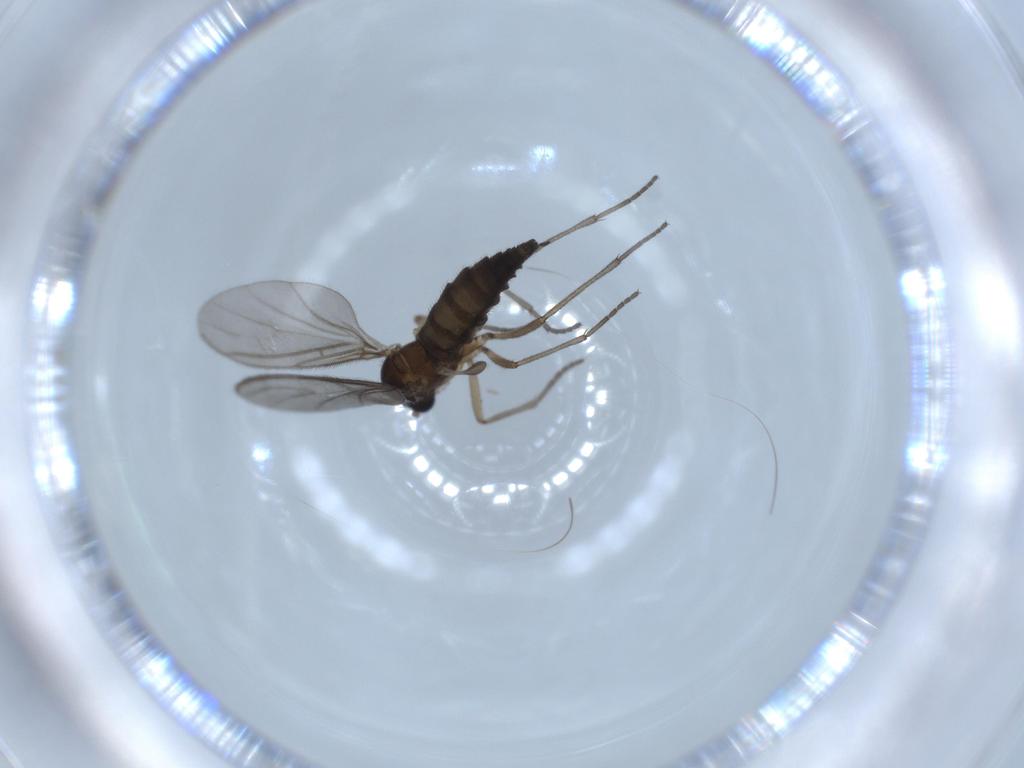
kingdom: Animalia
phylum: Arthropoda
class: Insecta
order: Diptera
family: Sciaridae
